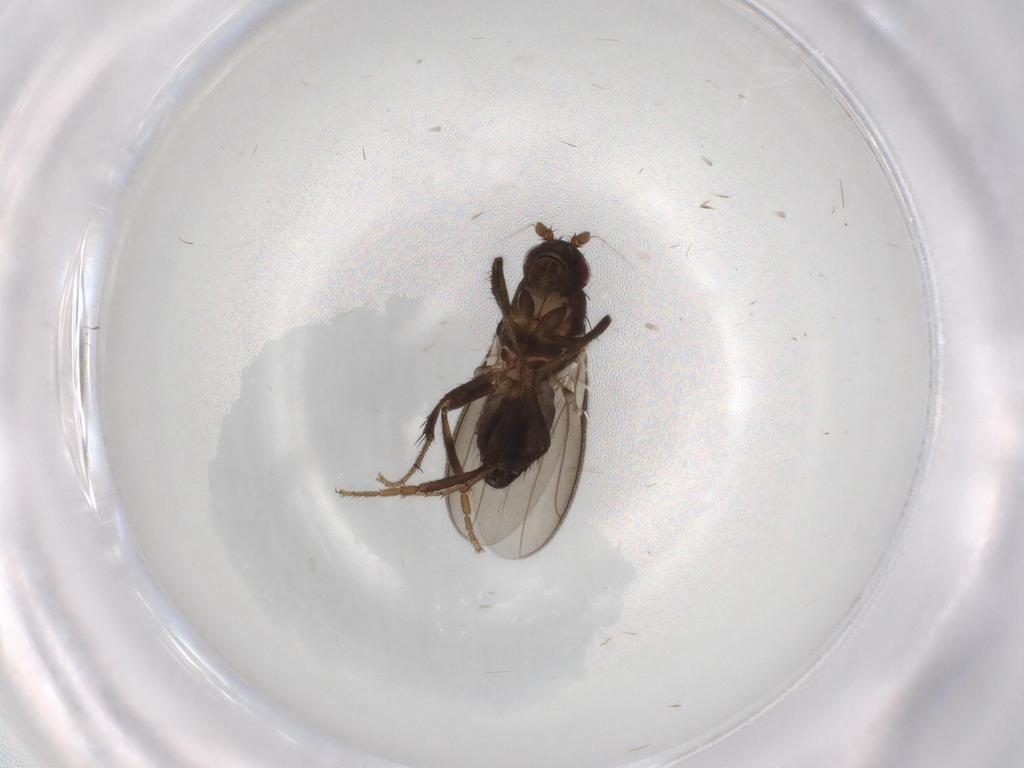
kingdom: Animalia
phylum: Arthropoda
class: Insecta
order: Diptera
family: Sphaeroceridae
